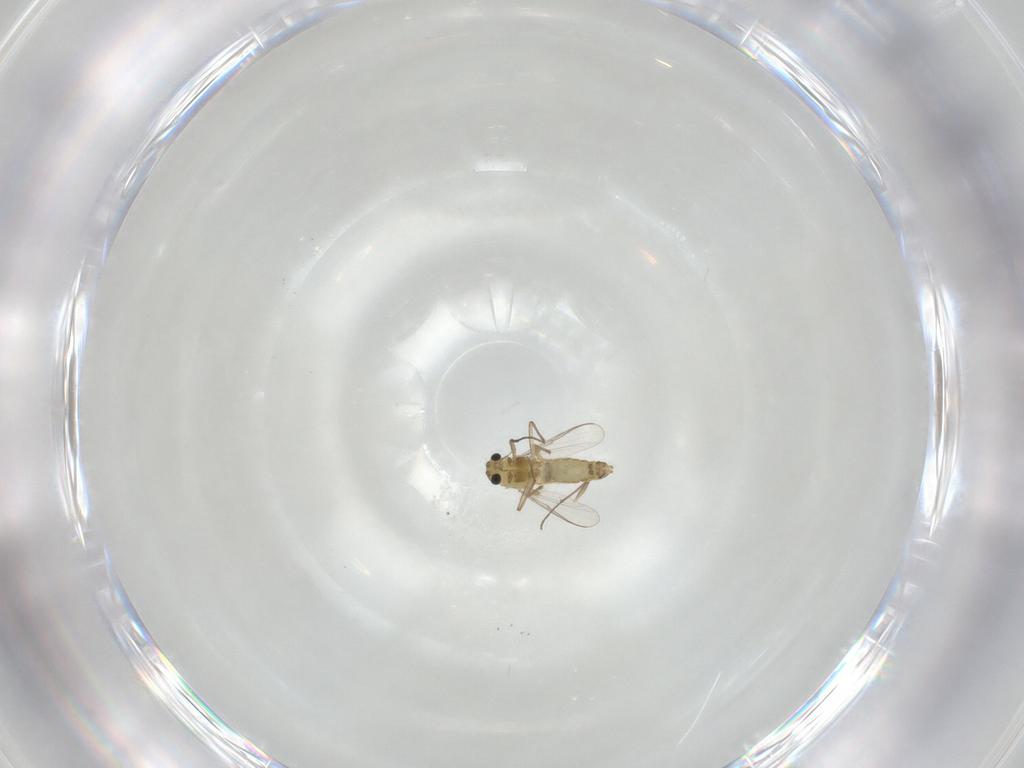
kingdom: Animalia
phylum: Arthropoda
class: Insecta
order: Diptera
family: Chironomidae
